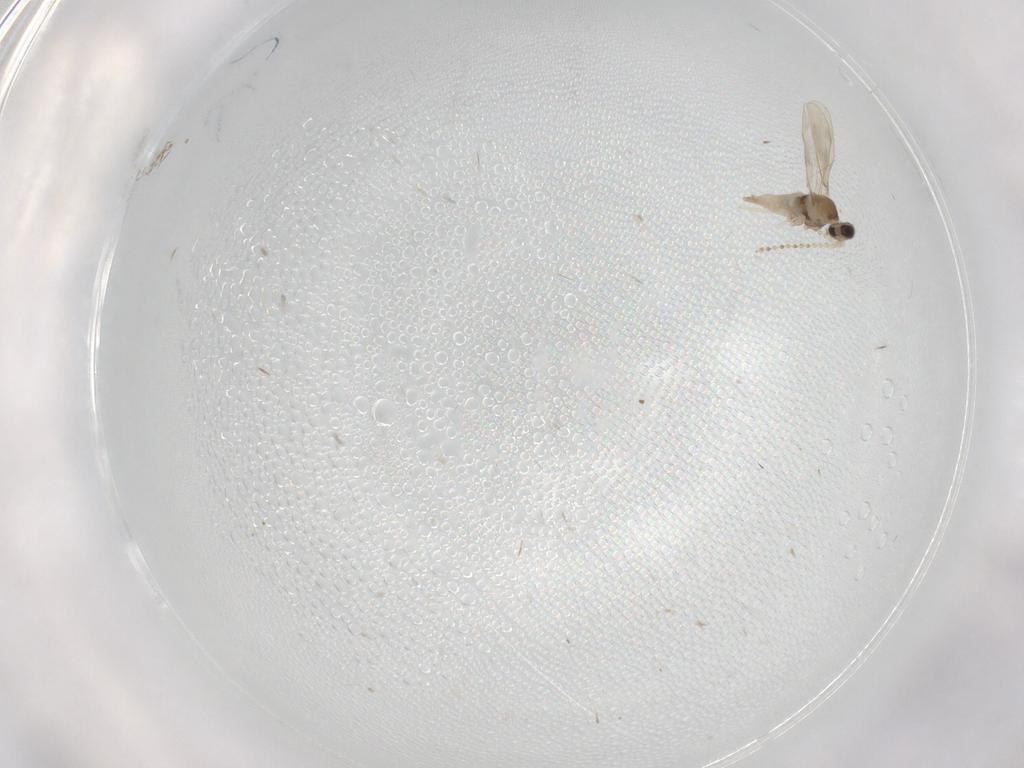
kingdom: Animalia
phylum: Arthropoda
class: Insecta
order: Diptera
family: Cecidomyiidae
